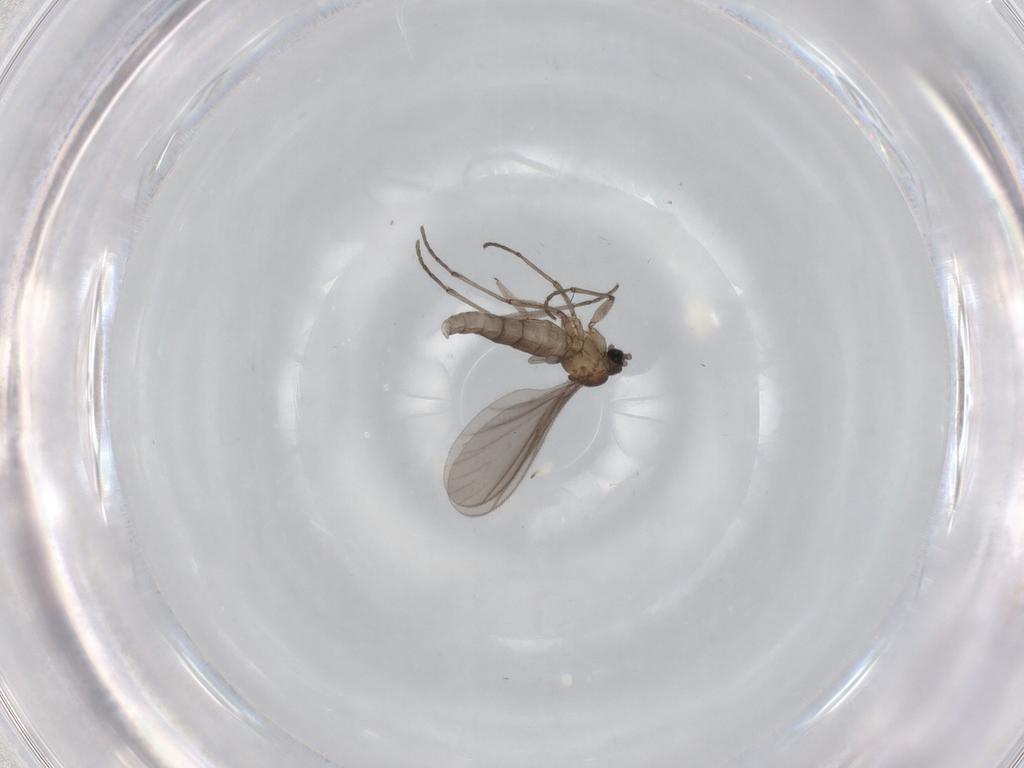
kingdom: Animalia
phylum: Arthropoda
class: Insecta
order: Diptera
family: Sciaridae
